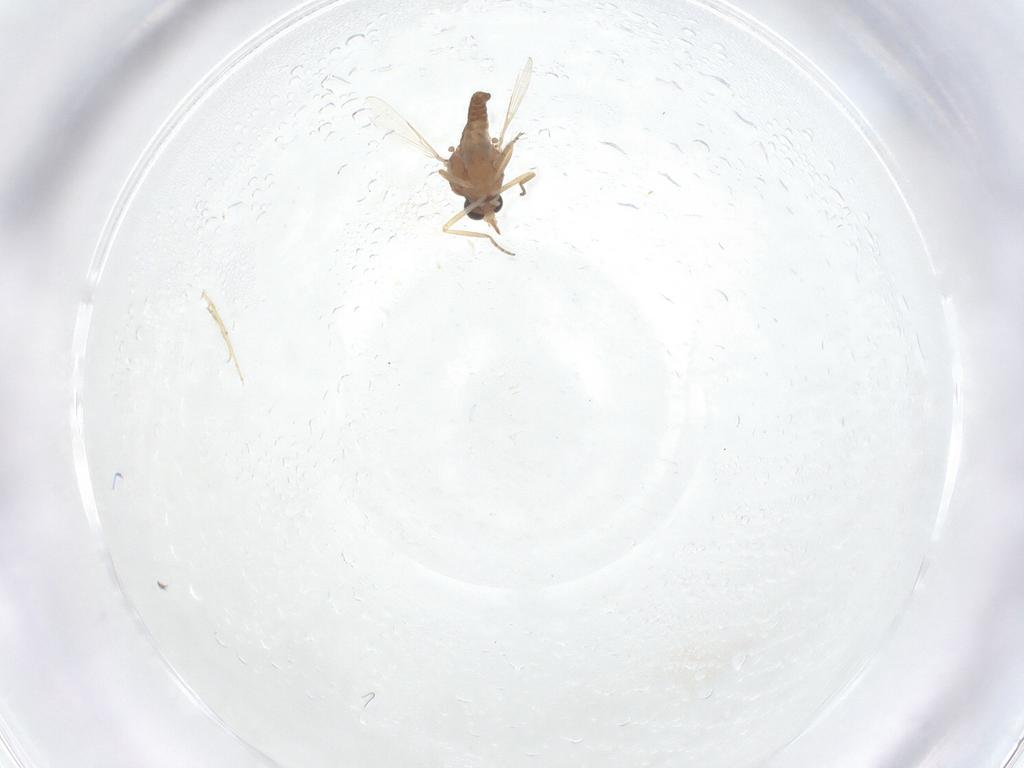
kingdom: Animalia
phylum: Arthropoda
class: Insecta
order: Diptera
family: Ceratopogonidae
